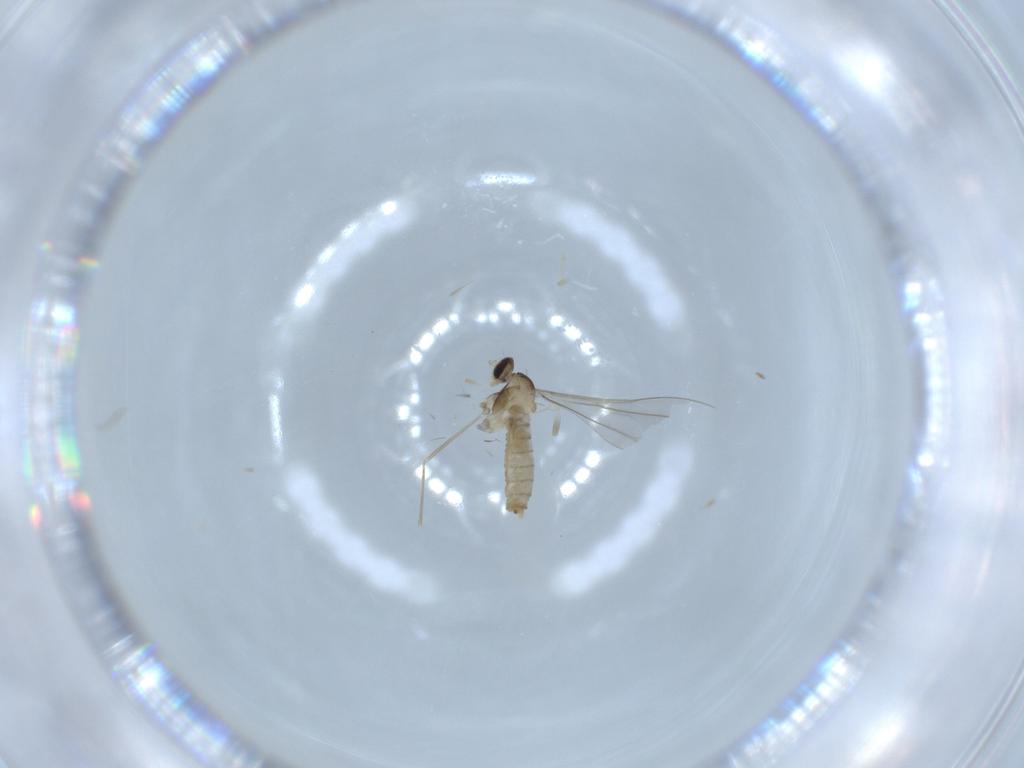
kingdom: Animalia
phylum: Arthropoda
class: Insecta
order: Diptera
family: Cecidomyiidae
